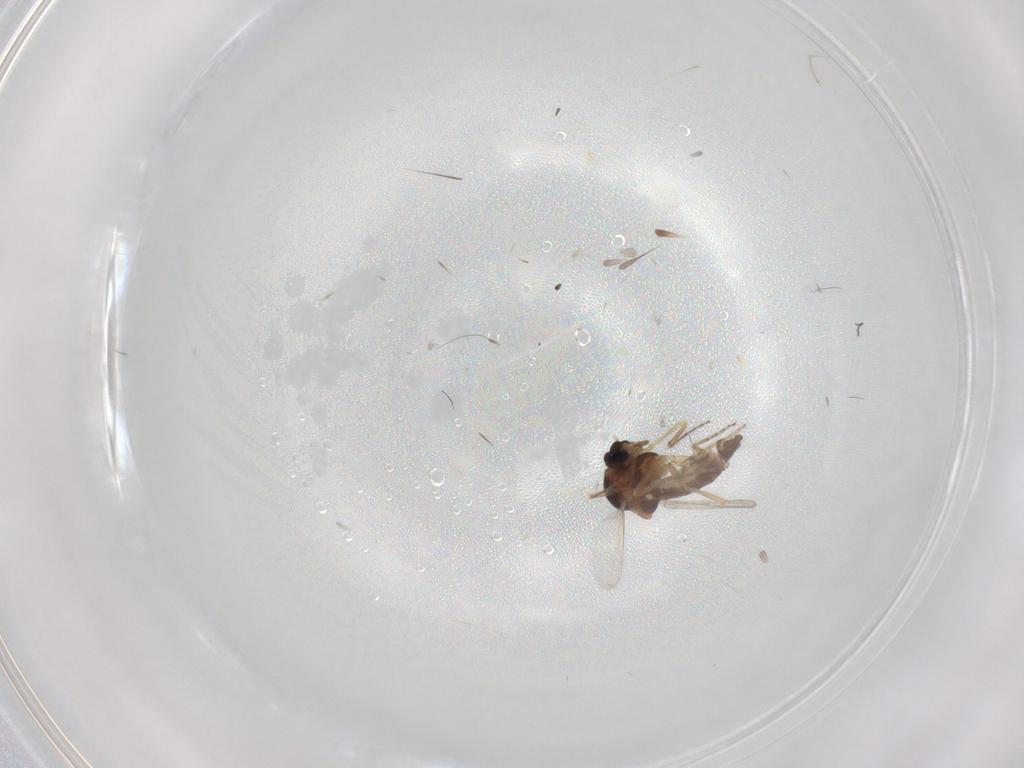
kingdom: Animalia
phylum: Arthropoda
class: Insecta
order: Diptera
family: Ceratopogonidae
